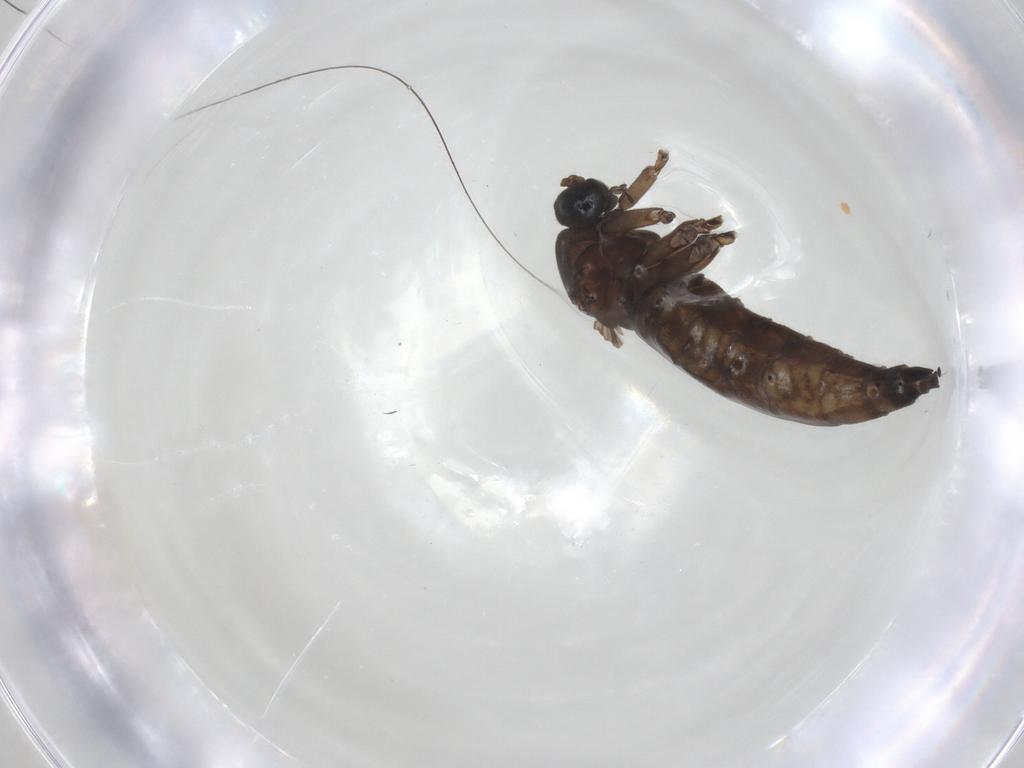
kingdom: Animalia
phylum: Arthropoda
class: Insecta
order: Diptera
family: Sciaridae
